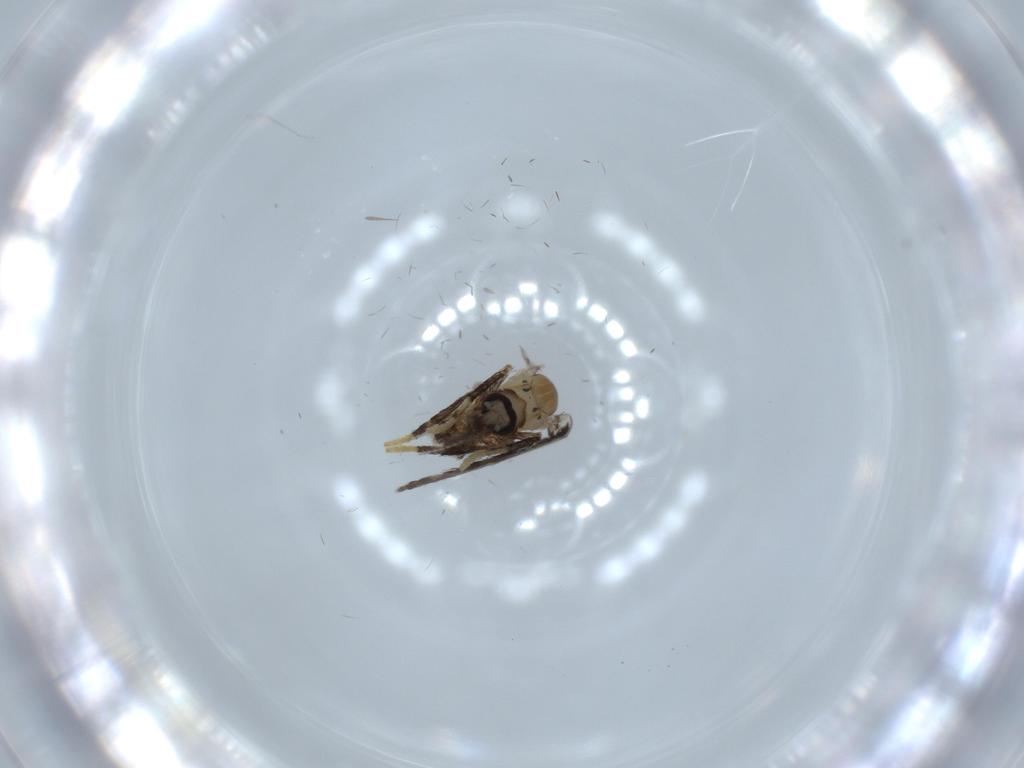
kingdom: Animalia
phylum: Arthropoda
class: Insecta
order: Diptera
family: Psychodidae
